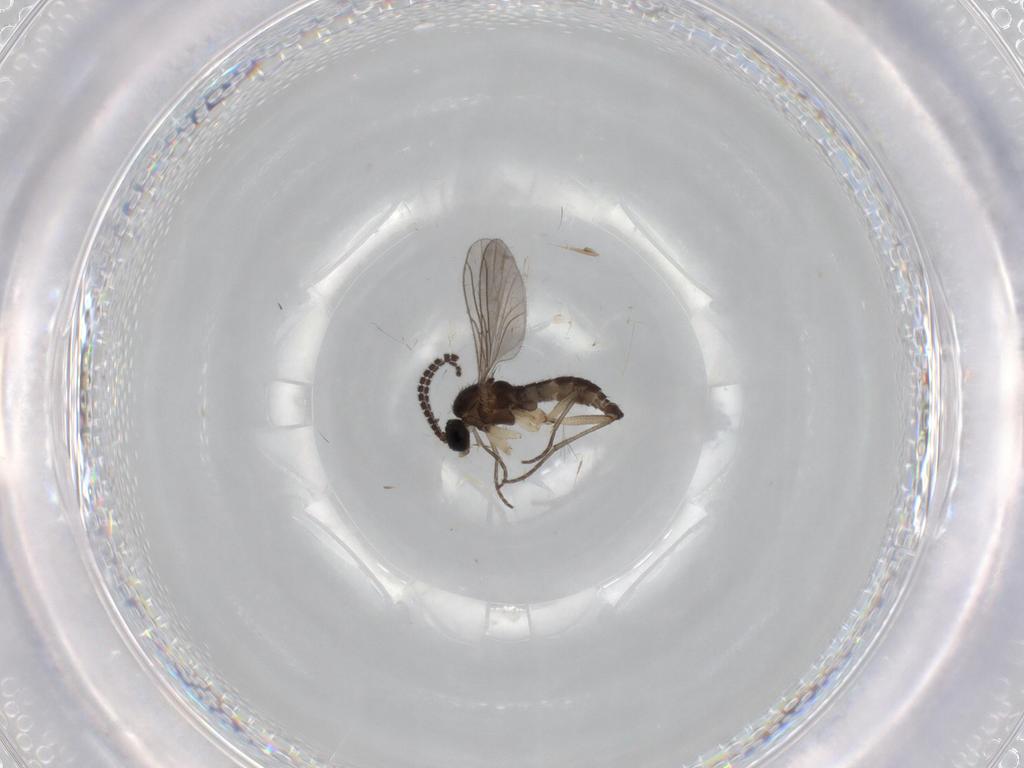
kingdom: Animalia
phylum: Arthropoda
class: Insecta
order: Diptera
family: Sciaridae
